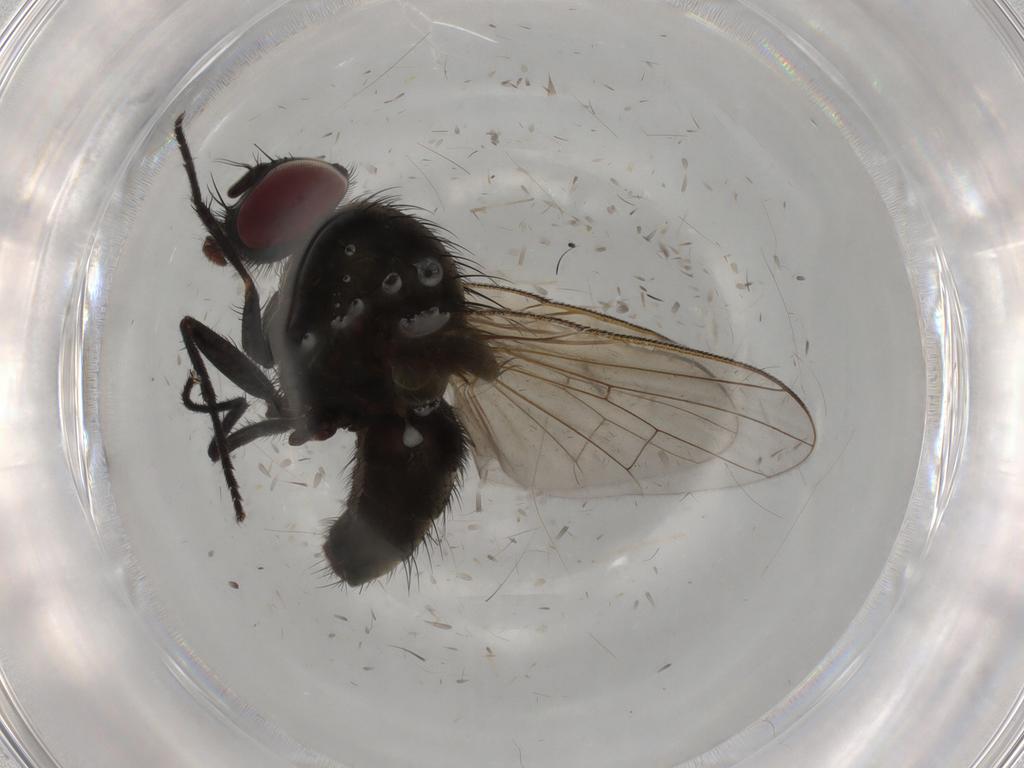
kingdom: Animalia
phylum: Arthropoda
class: Insecta
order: Diptera
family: Muscidae
